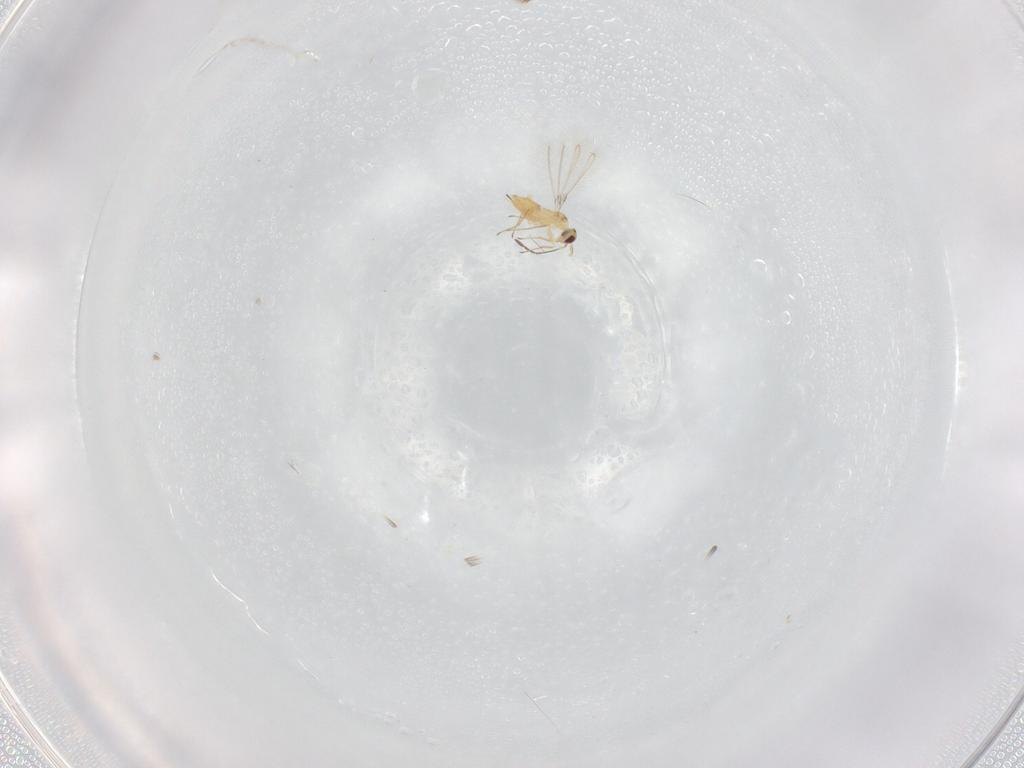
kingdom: Animalia
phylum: Arthropoda
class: Insecta
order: Hymenoptera
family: Mymaridae
